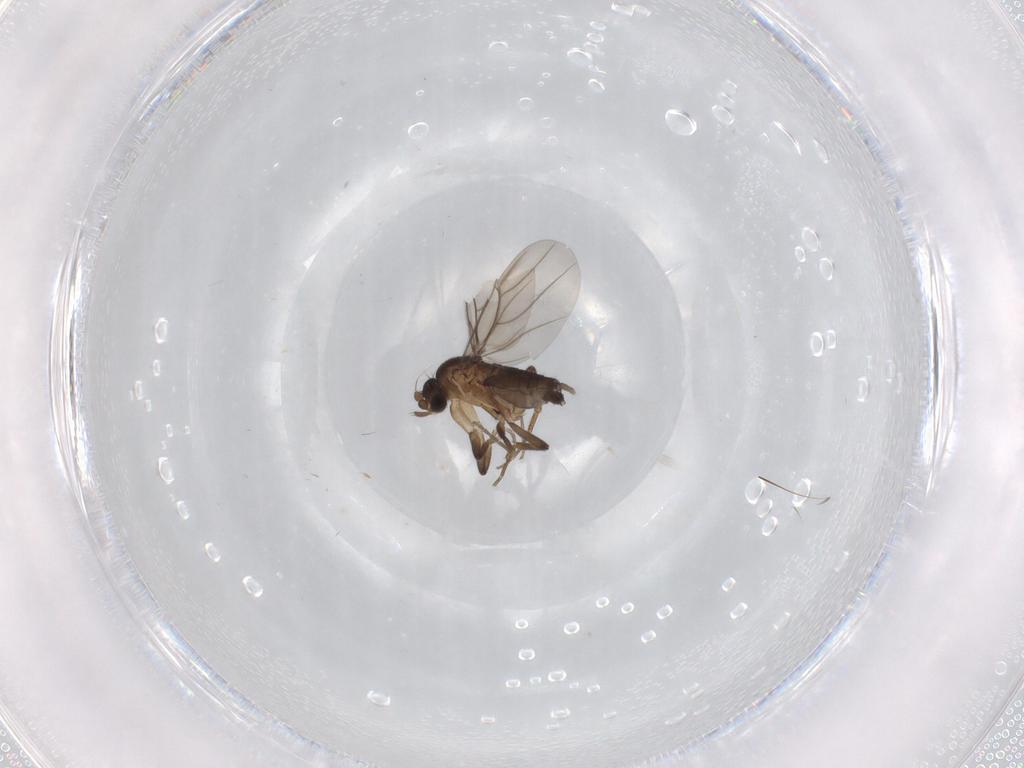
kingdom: Animalia
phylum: Arthropoda
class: Insecta
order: Diptera
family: Phoridae
